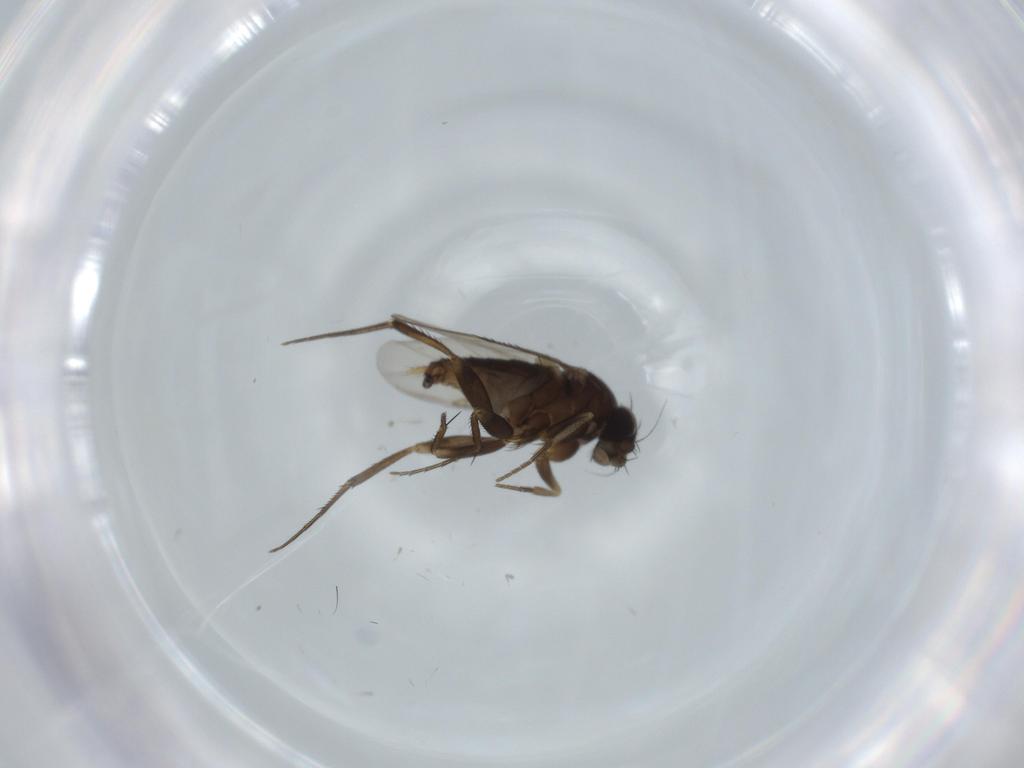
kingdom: Animalia
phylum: Arthropoda
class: Insecta
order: Diptera
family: Phoridae
